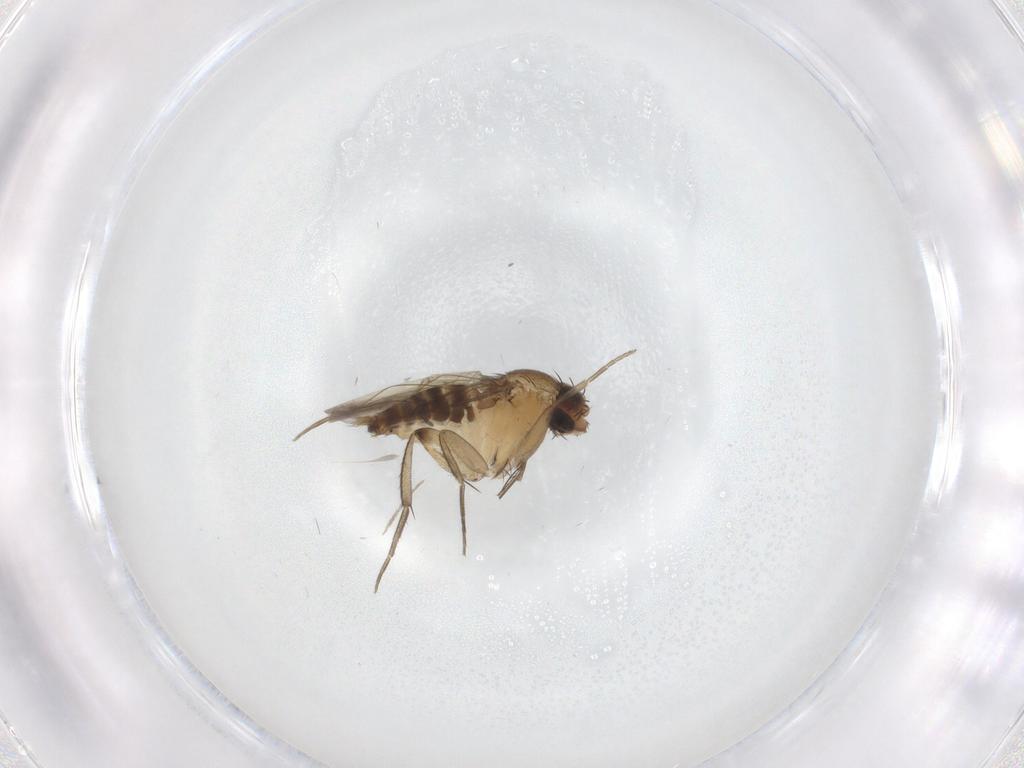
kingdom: Animalia
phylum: Arthropoda
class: Insecta
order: Diptera
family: Phoridae
